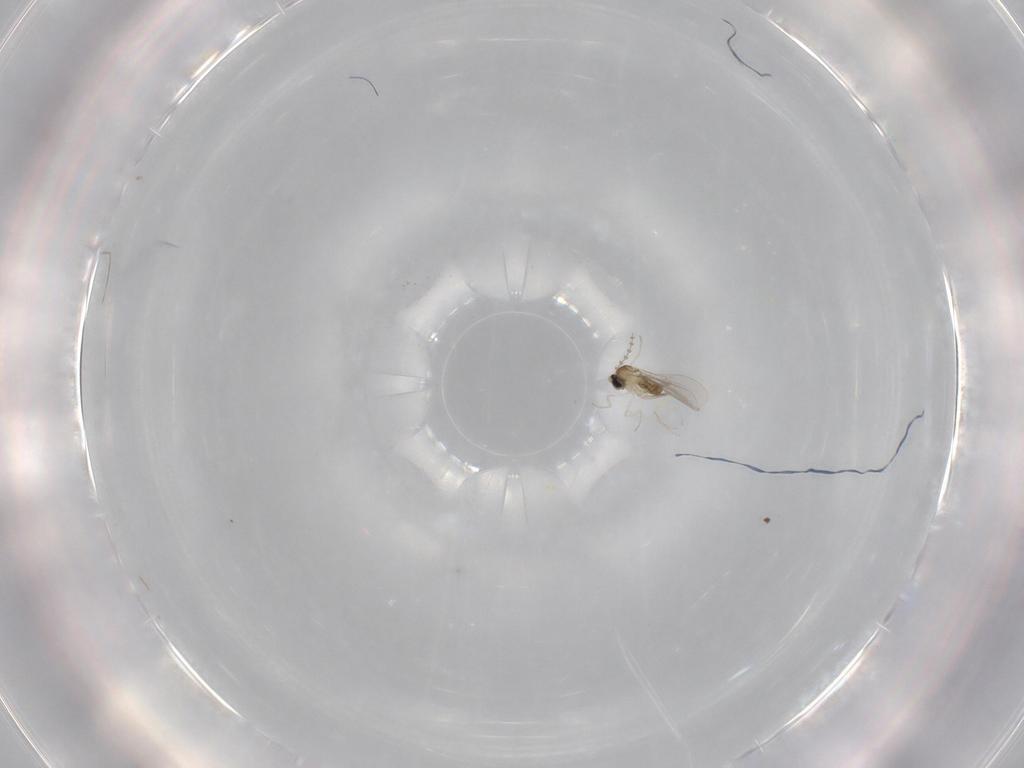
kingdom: Animalia
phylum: Arthropoda
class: Insecta
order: Diptera
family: Cecidomyiidae
